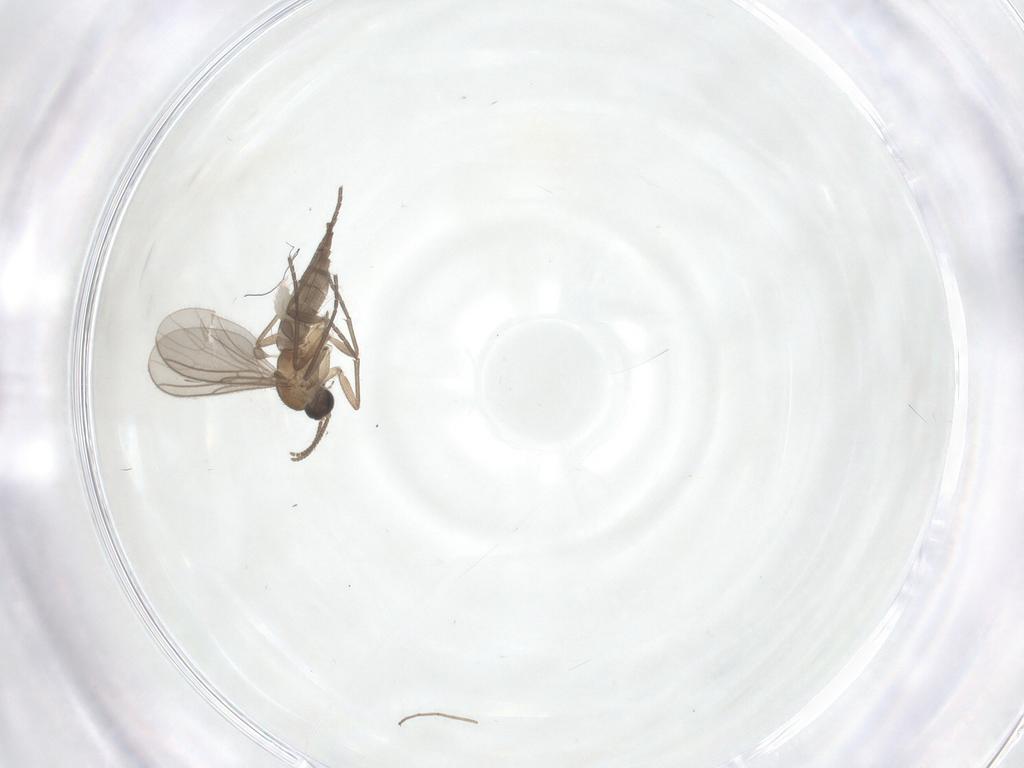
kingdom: Animalia
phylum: Arthropoda
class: Insecta
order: Diptera
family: Sciaridae
